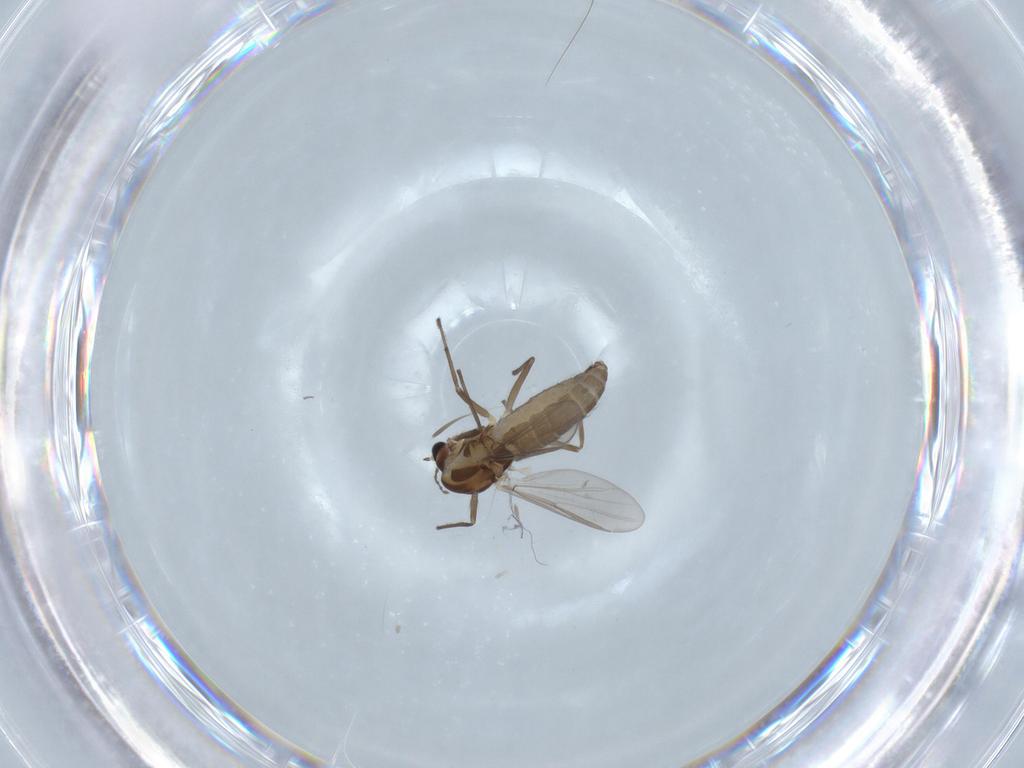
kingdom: Animalia
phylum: Arthropoda
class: Insecta
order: Diptera
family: Chironomidae
